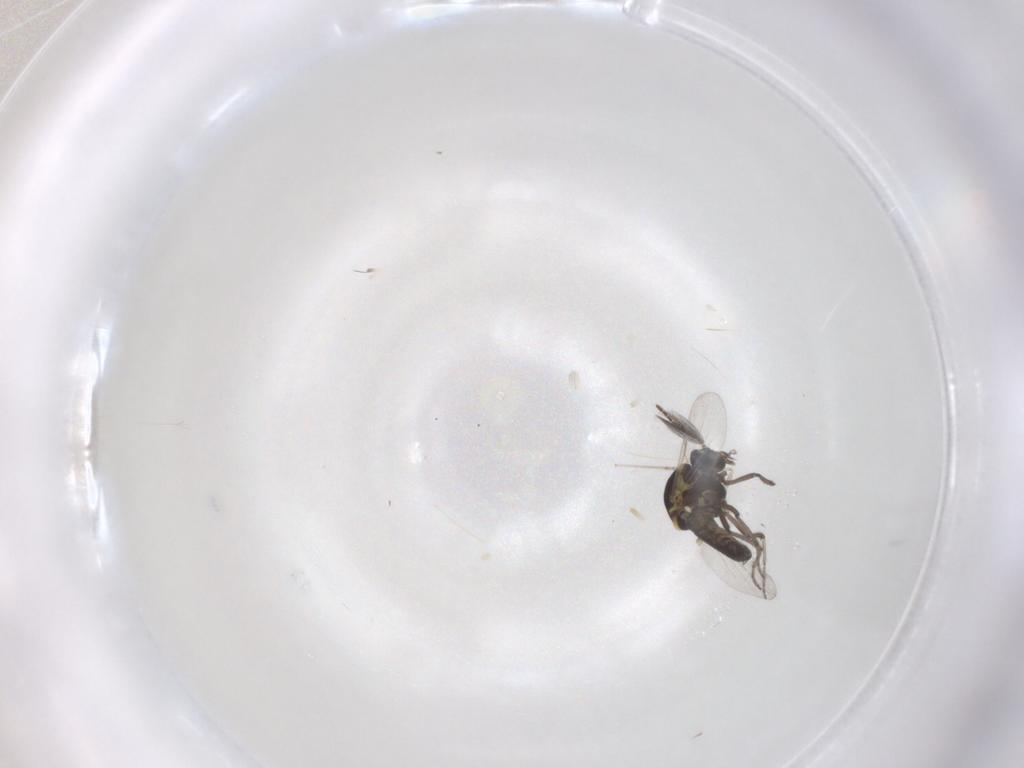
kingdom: Animalia
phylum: Arthropoda
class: Insecta
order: Diptera
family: Ceratopogonidae
